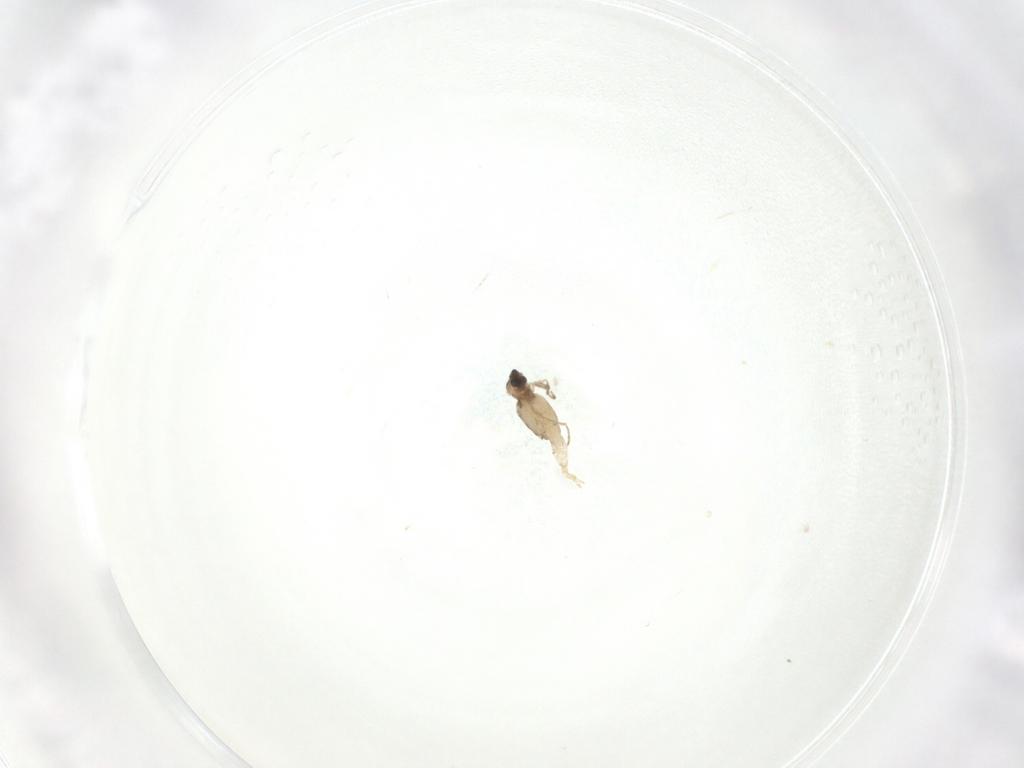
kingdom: Animalia
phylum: Arthropoda
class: Insecta
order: Diptera
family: Cecidomyiidae
